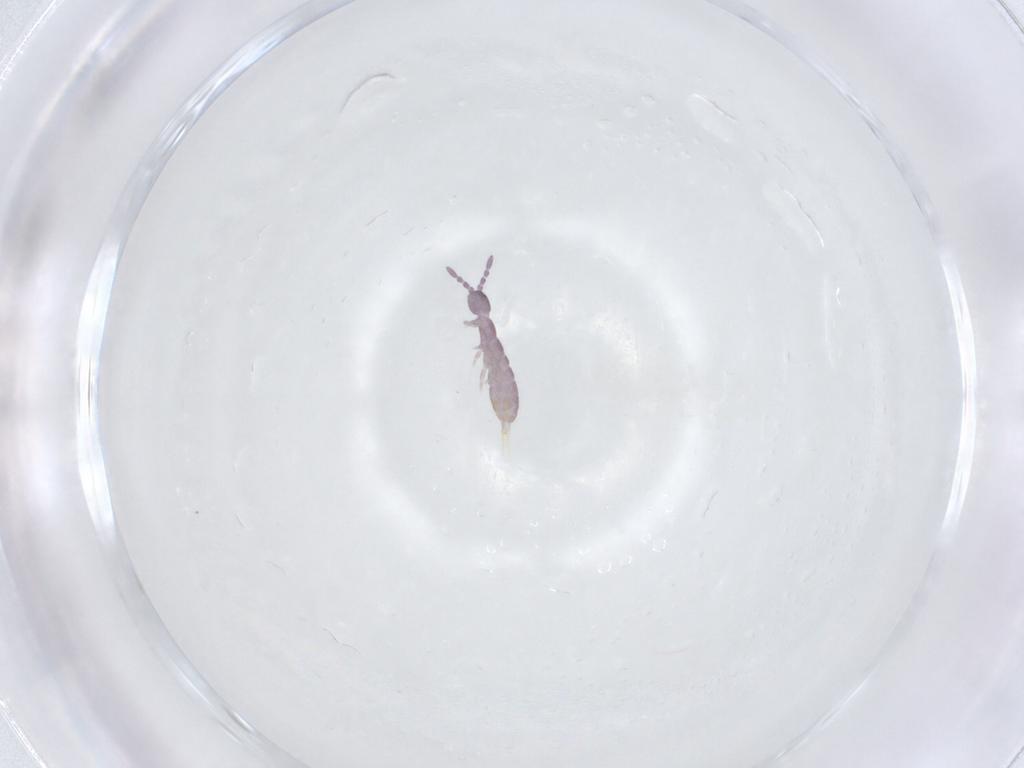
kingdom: Animalia
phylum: Arthropoda
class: Collembola
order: Entomobryomorpha
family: Isotomidae
